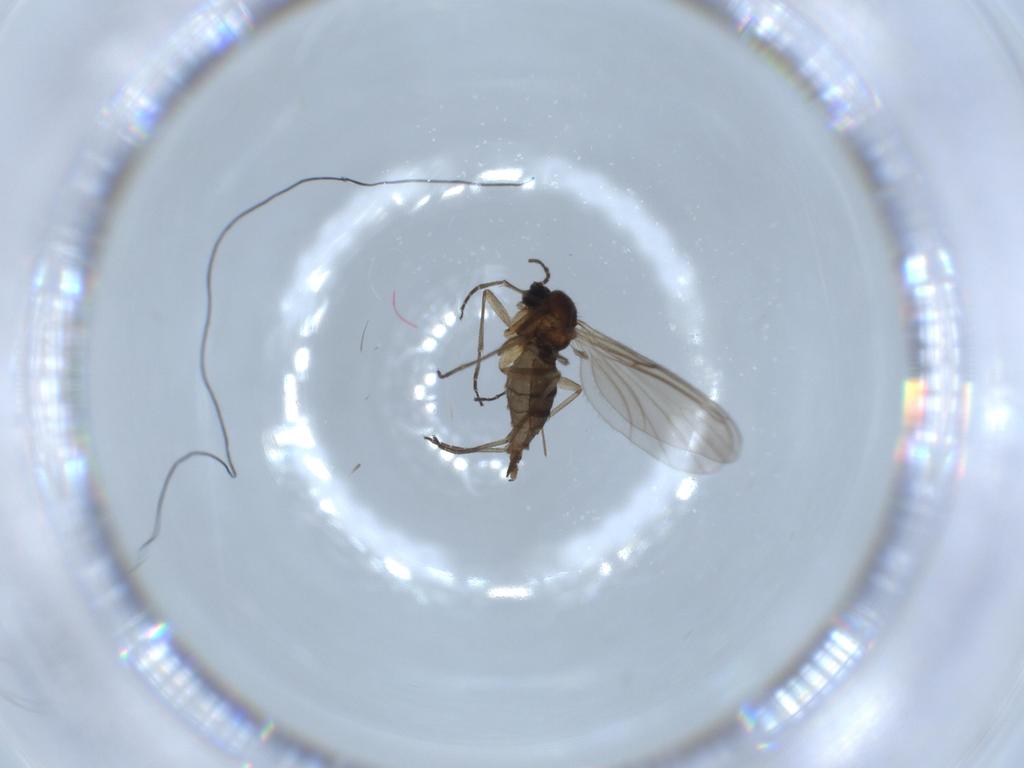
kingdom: Animalia
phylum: Arthropoda
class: Insecta
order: Diptera
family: Sciaridae
